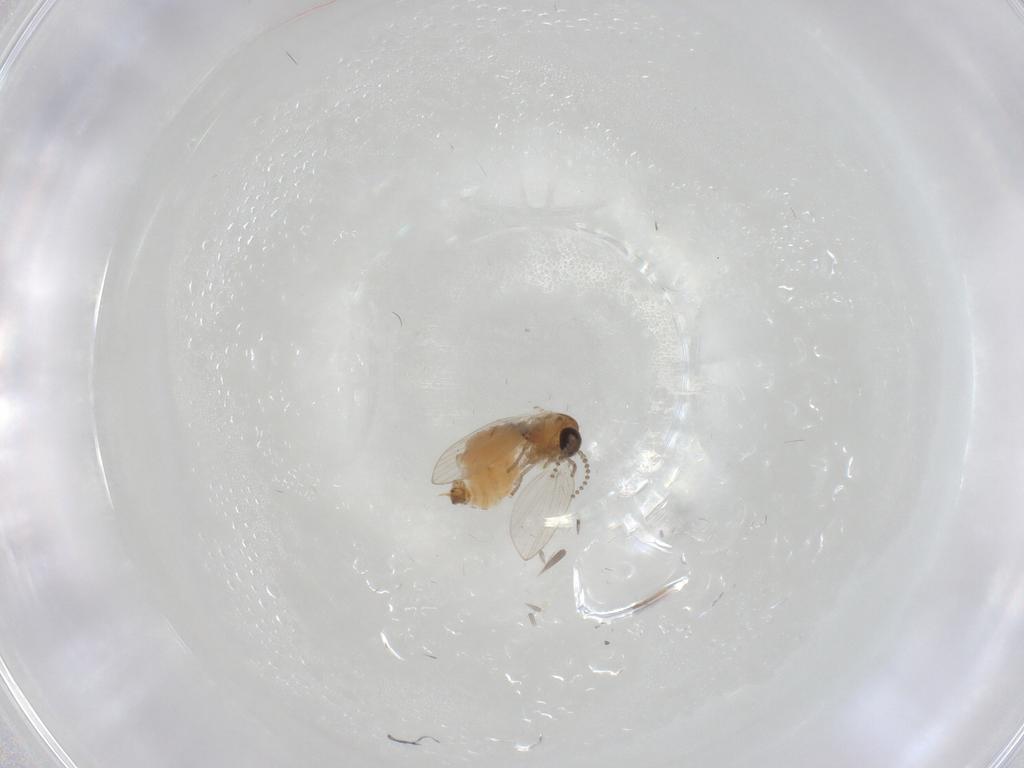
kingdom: Animalia
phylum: Arthropoda
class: Insecta
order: Diptera
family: Psychodidae
